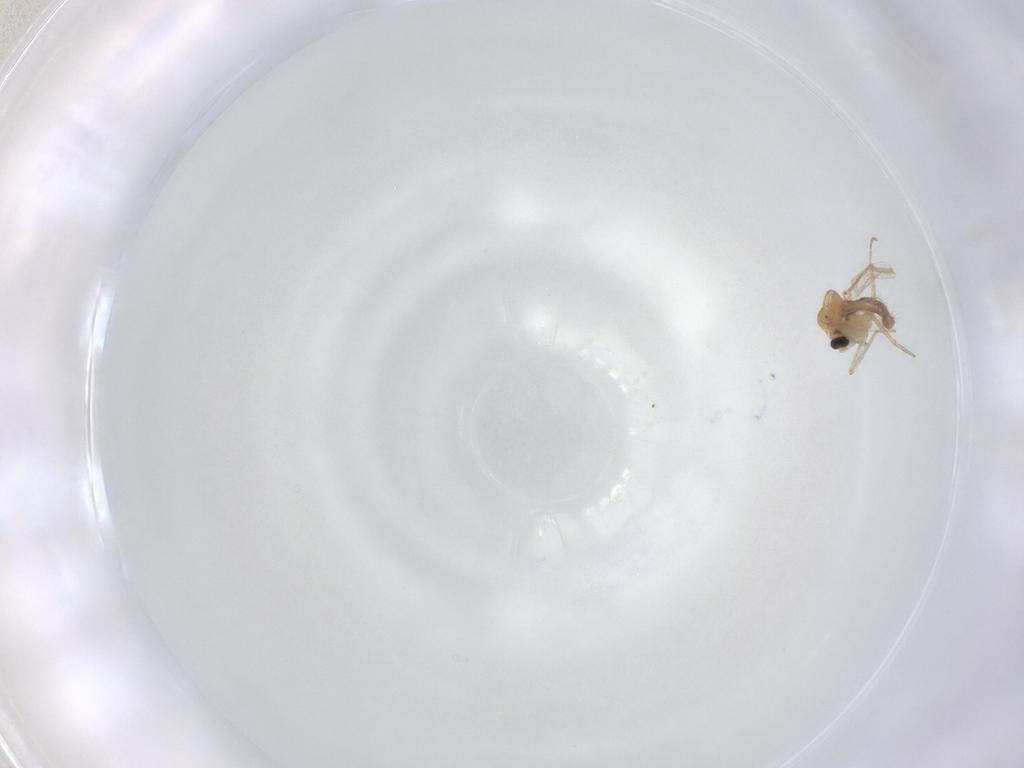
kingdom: Animalia
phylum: Arthropoda
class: Insecta
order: Diptera
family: Ceratopogonidae
